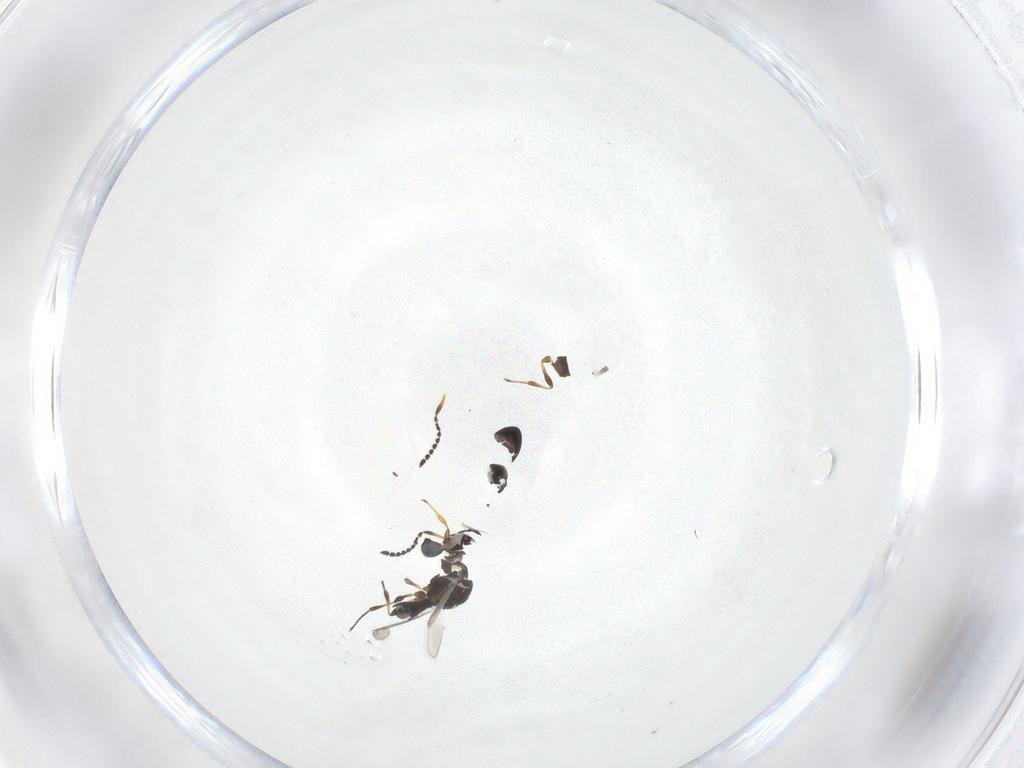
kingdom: Animalia
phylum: Arthropoda
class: Insecta
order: Hymenoptera
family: Platygastridae
